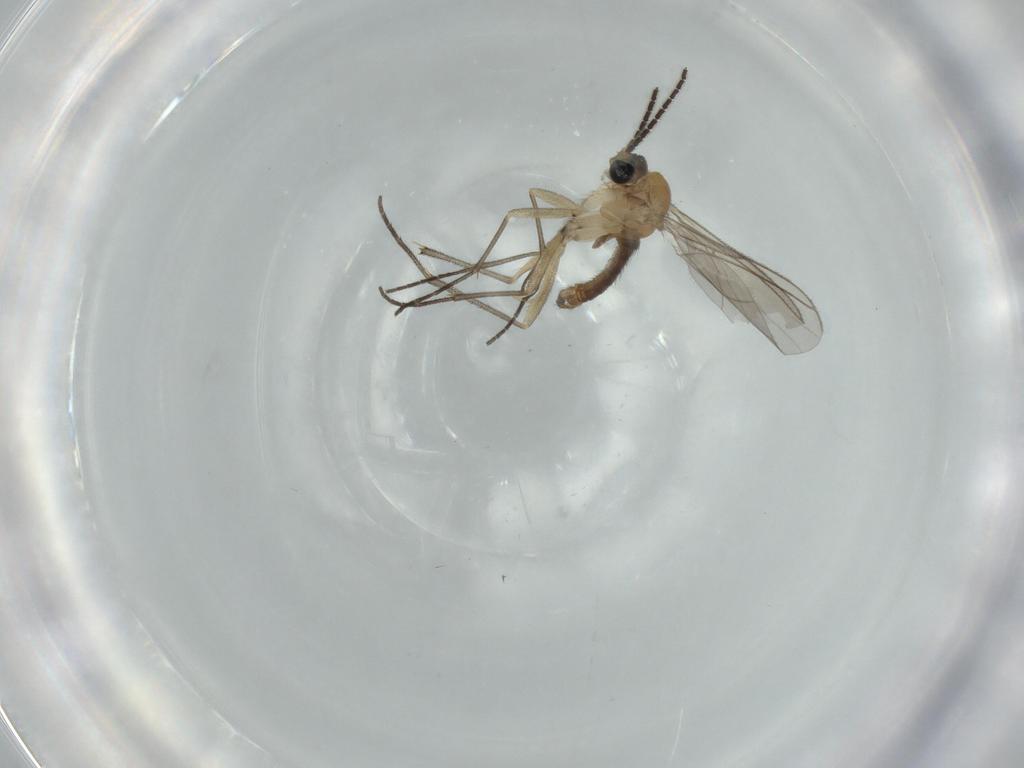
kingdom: Animalia
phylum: Arthropoda
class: Insecta
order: Diptera
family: Sciaridae
